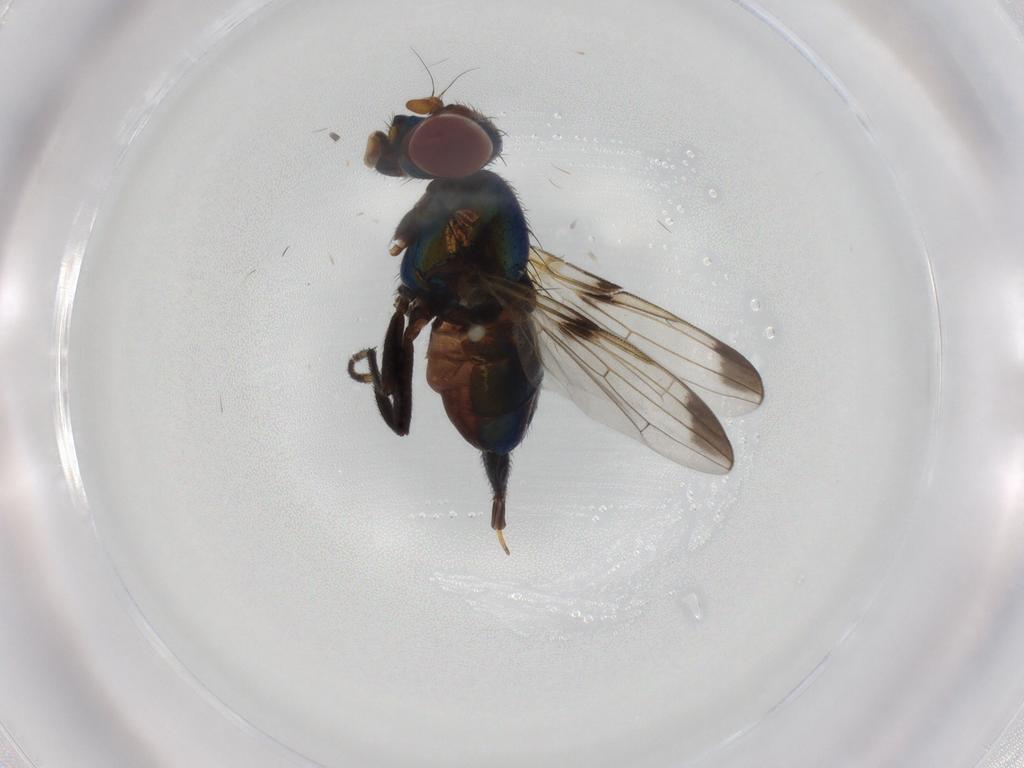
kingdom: Animalia
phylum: Arthropoda
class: Insecta
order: Diptera
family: Ulidiidae
